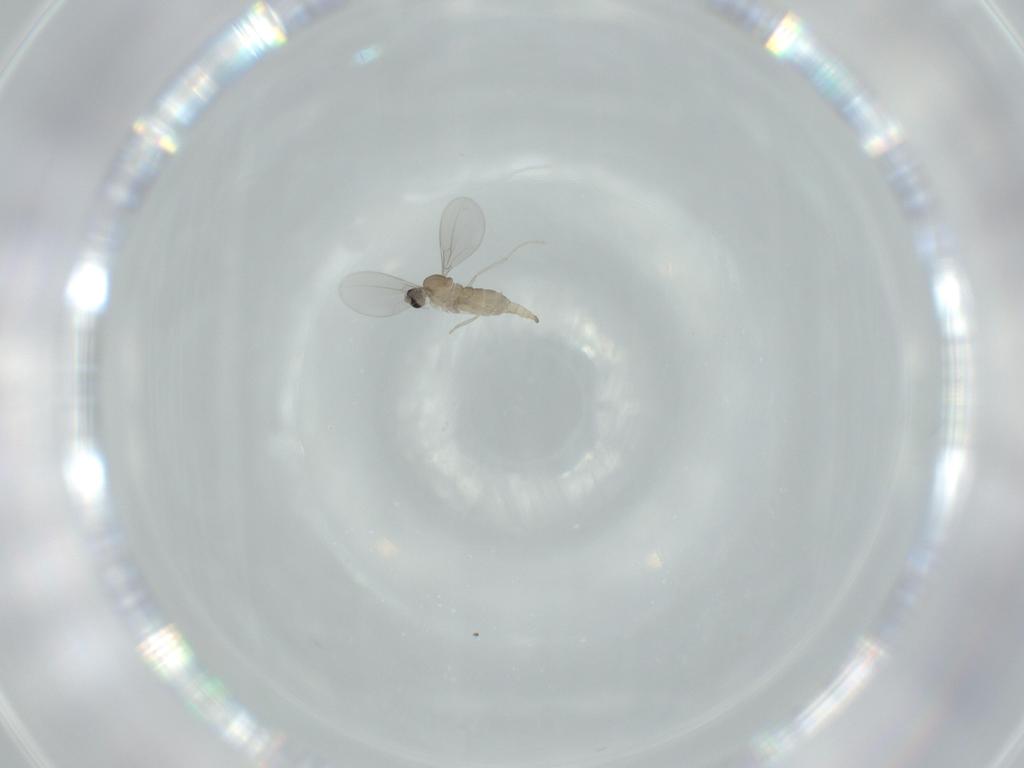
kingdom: Animalia
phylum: Arthropoda
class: Insecta
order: Diptera
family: Cecidomyiidae
